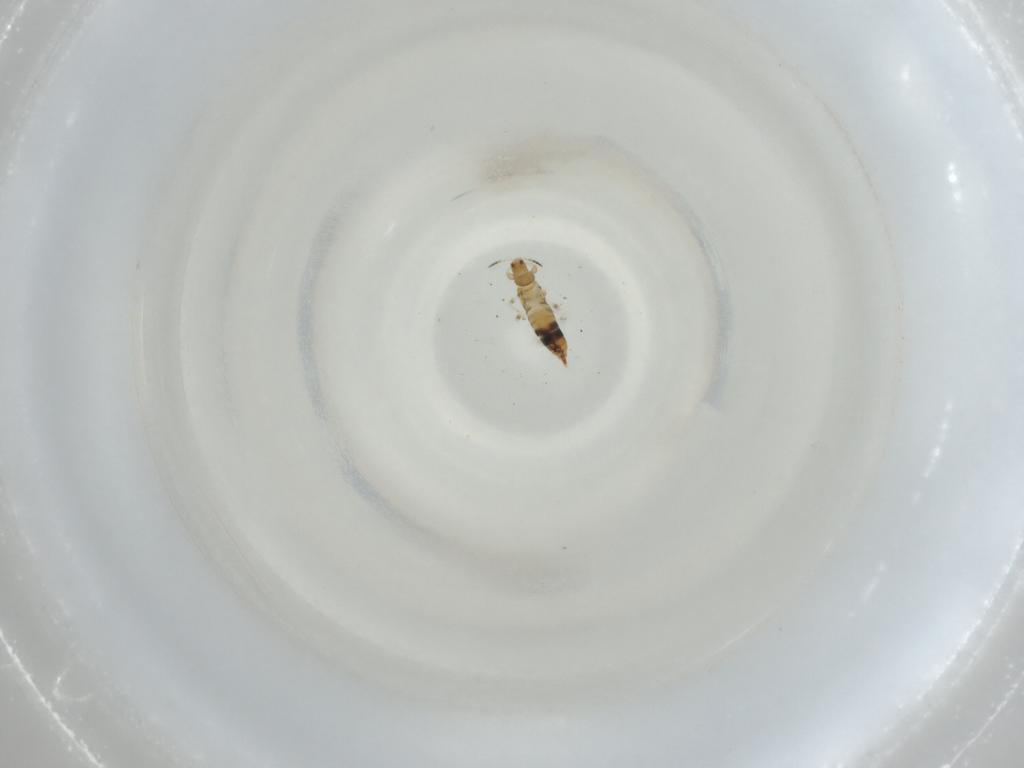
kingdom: Animalia
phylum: Arthropoda
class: Insecta
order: Thysanoptera
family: Phlaeothripidae
